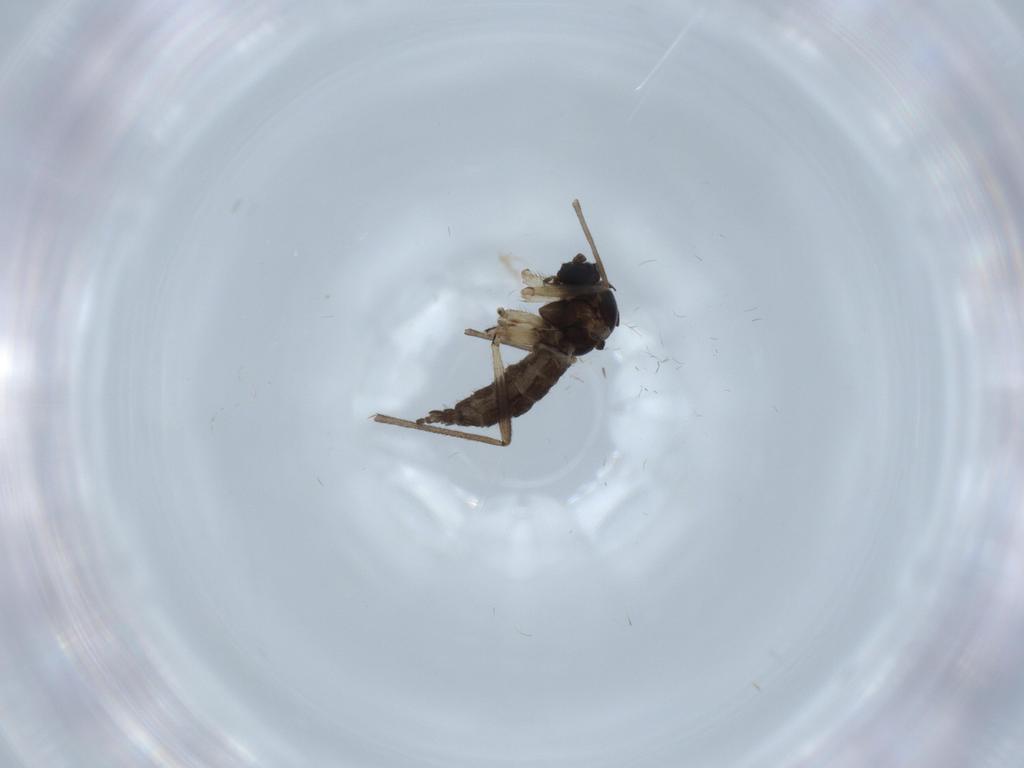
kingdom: Animalia
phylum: Arthropoda
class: Insecta
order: Diptera
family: Sciaridae
